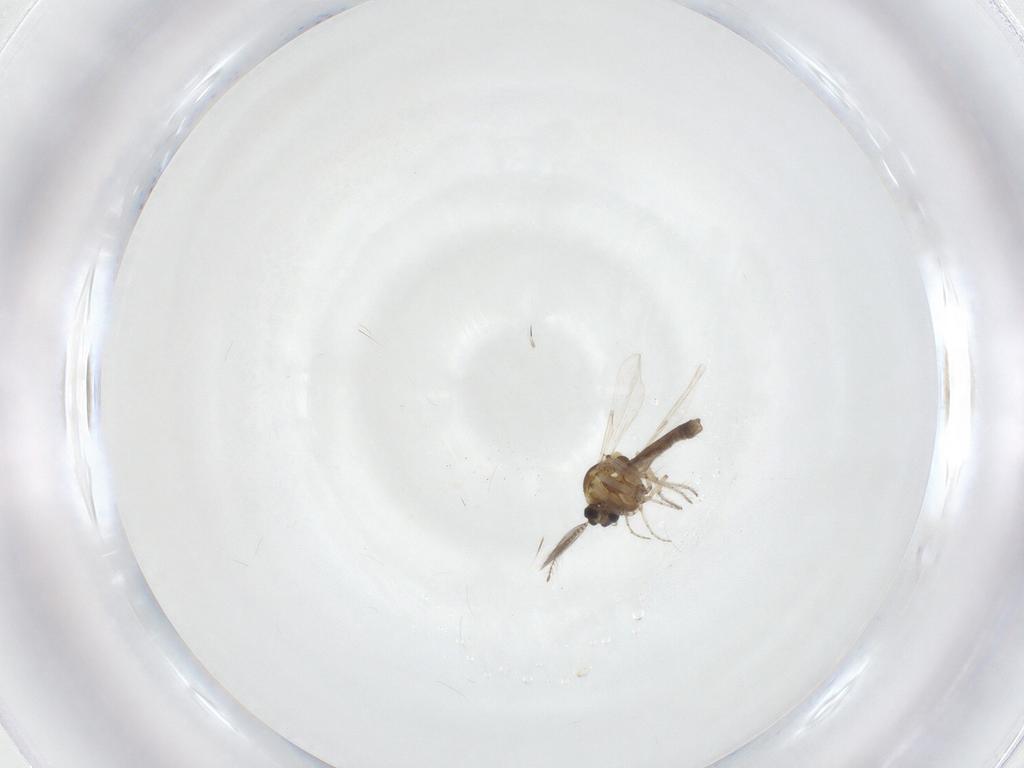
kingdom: Animalia
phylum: Arthropoda
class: Insecta
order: Diptera
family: Ceratopogonidae
